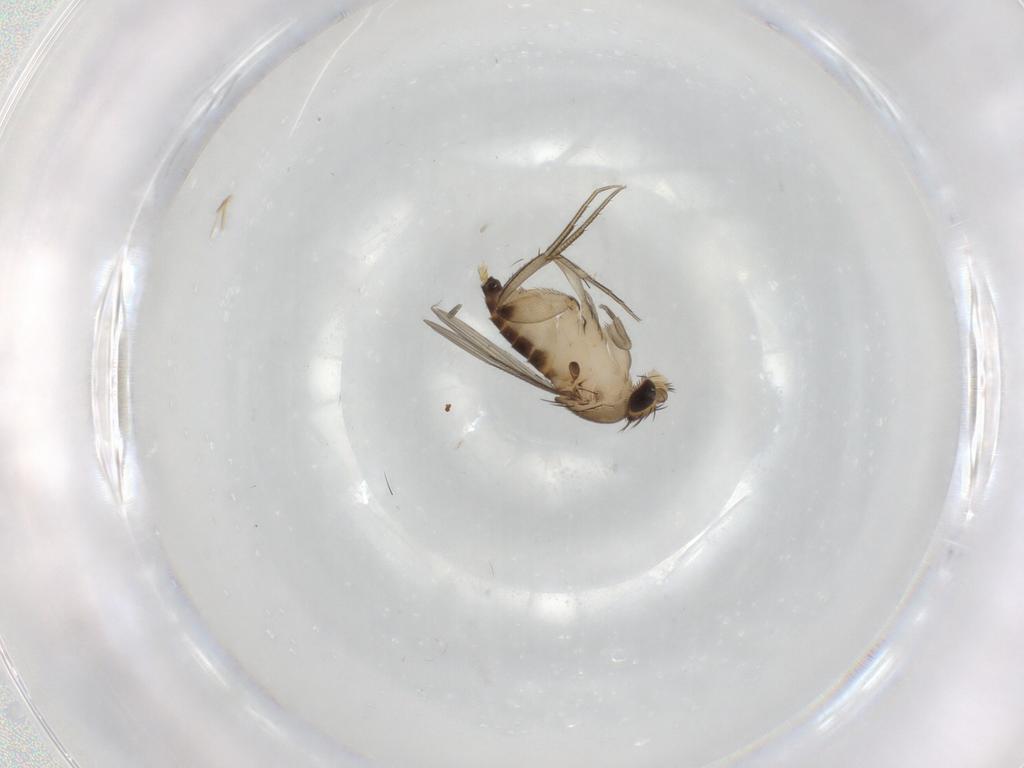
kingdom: Animalia
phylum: Arthropoda
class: Insecta
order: Diptera
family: Psychodidae
